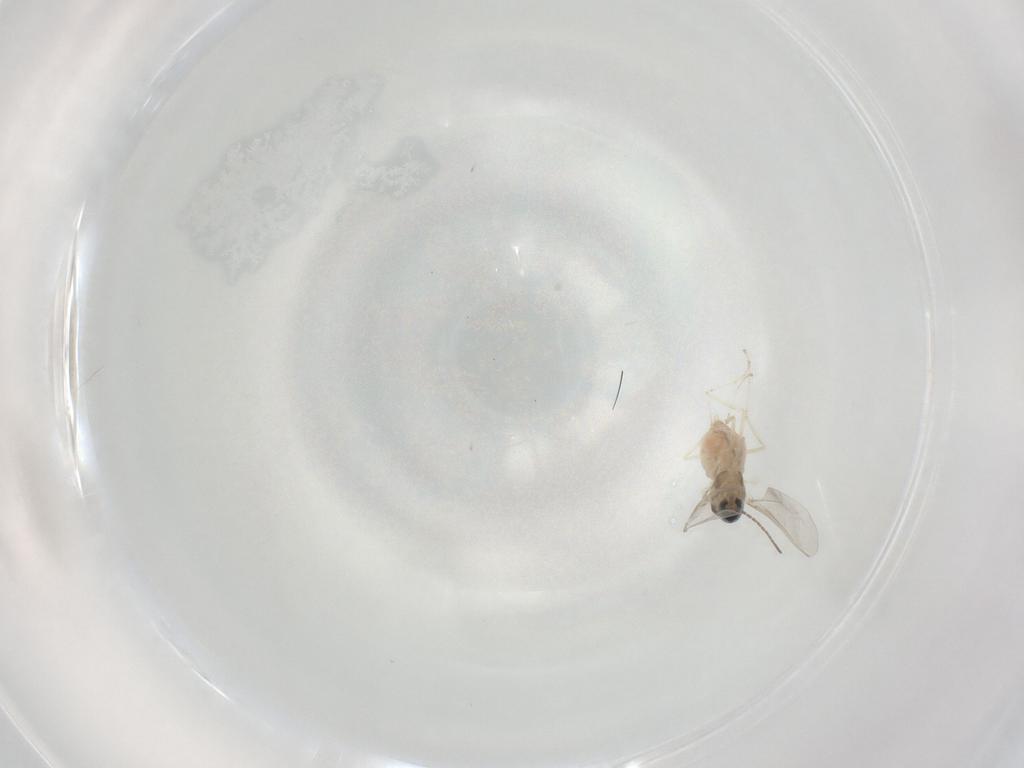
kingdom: Animalia
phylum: Arthropoda
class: Insecta
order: Diptera
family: Cecidomyiidae
